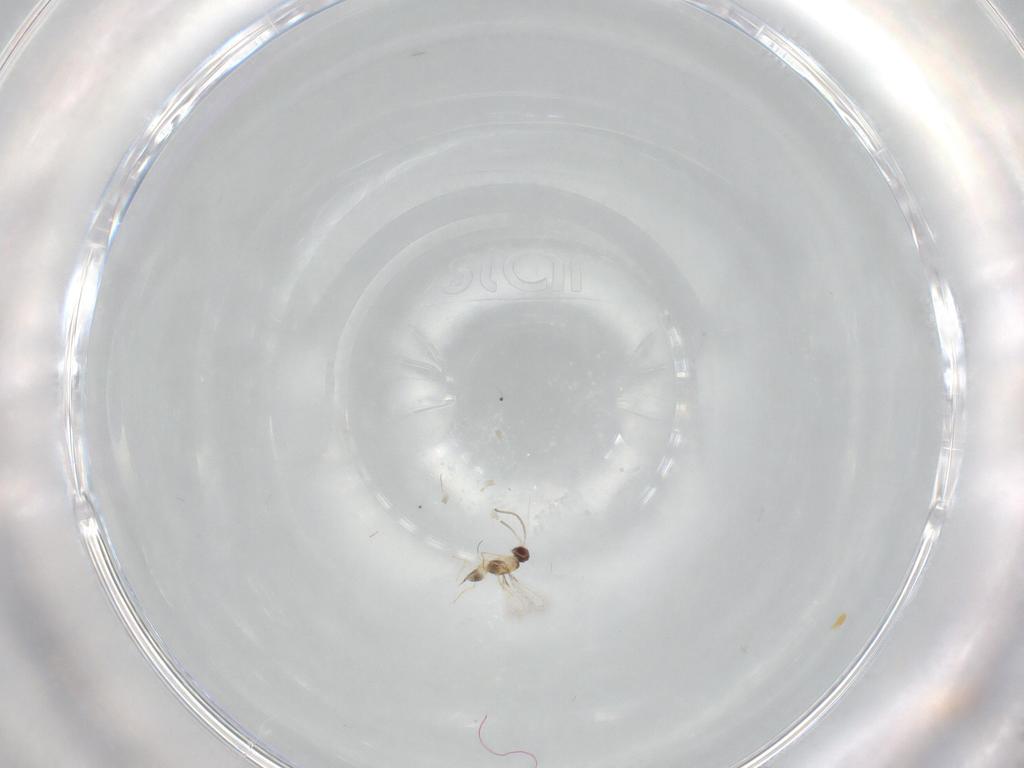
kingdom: Animalia
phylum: Arthropoda
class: Insecta
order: Hymenoptera
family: Mymaridae
